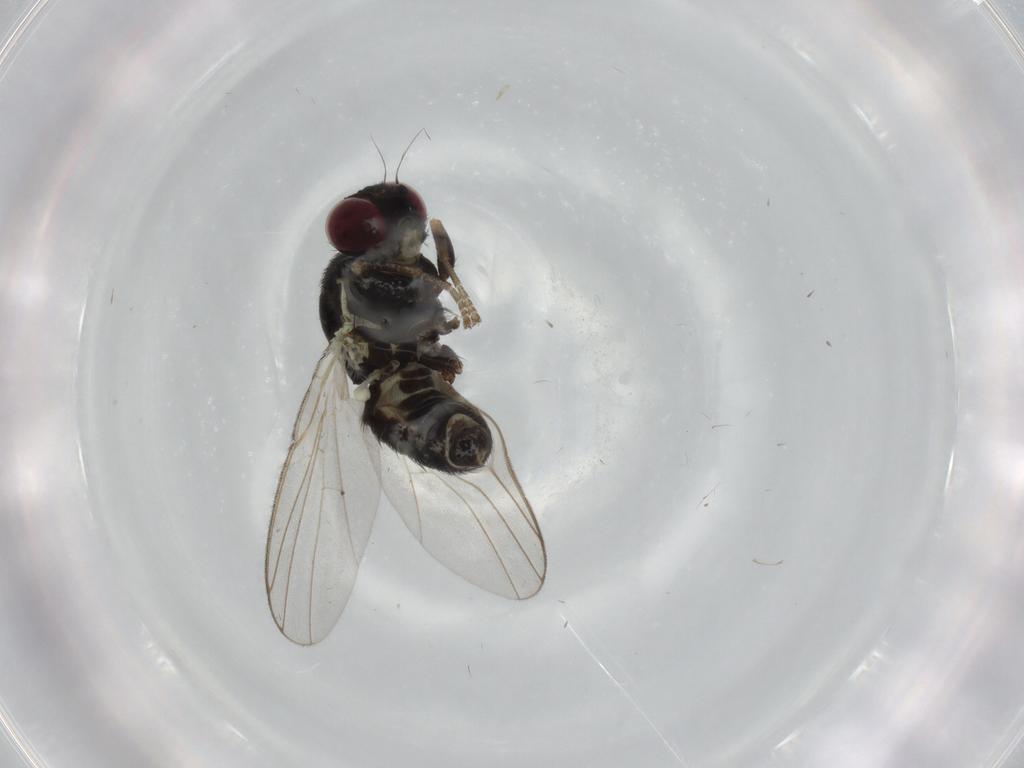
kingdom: Animalia
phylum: Arthropoda
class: Insecta
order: Diptera
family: Agromyzidae
